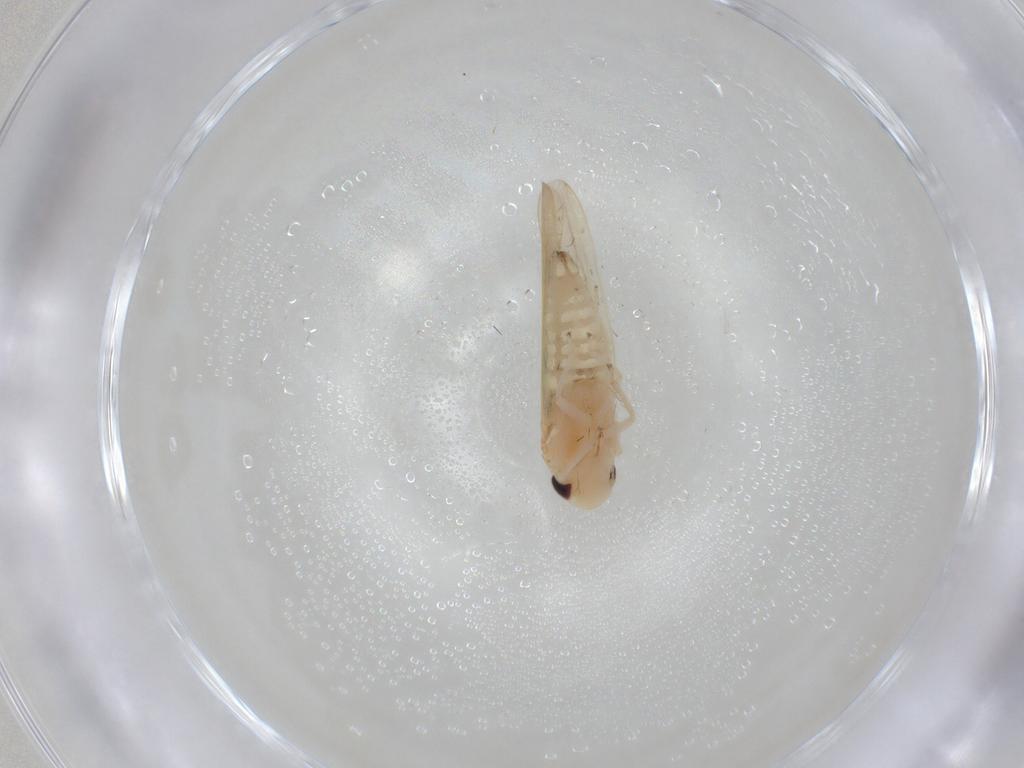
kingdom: Animalia
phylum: Arthropoda
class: Insecta
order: Hemiptera
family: Cicadellidae
